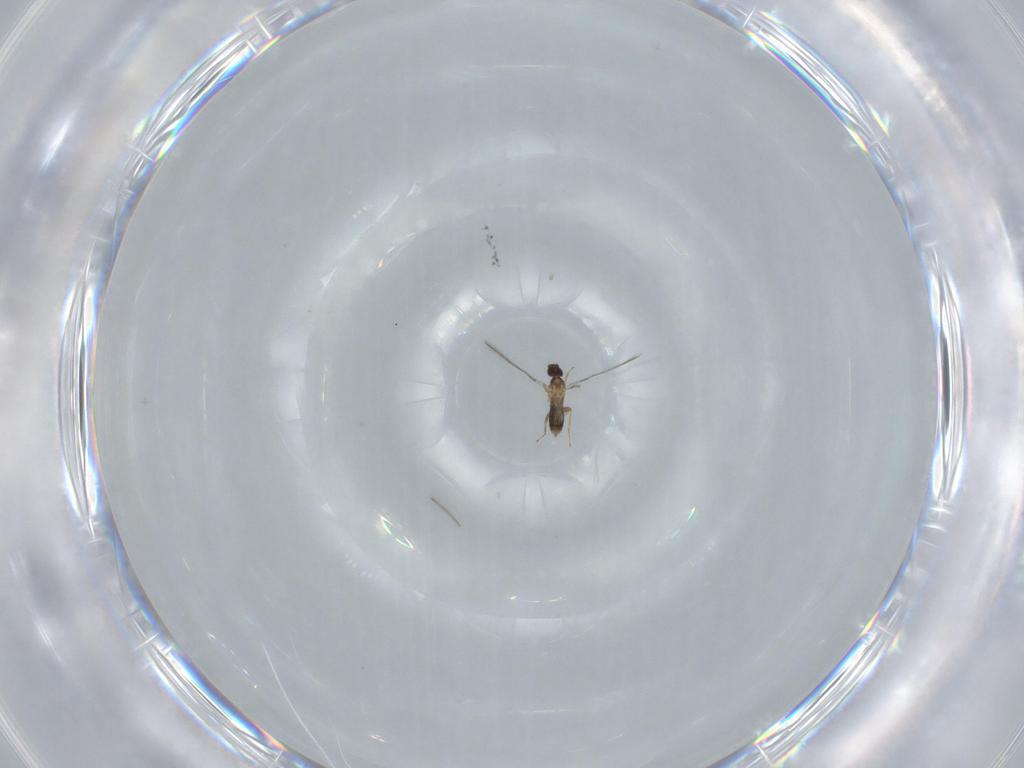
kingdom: Animalia
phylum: Arthropoda
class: Insecta
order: Hymenoptera
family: Mymaridae
